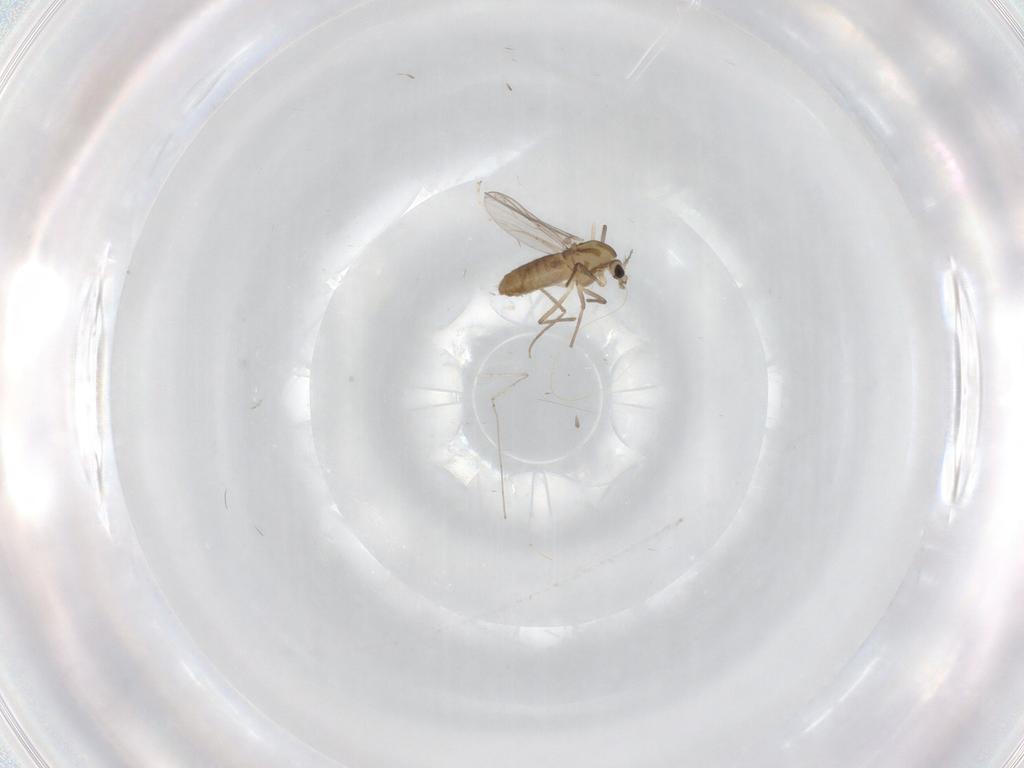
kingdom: Animalia
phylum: Arthropoda
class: Insecta
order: Diptera
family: Chironomidae
